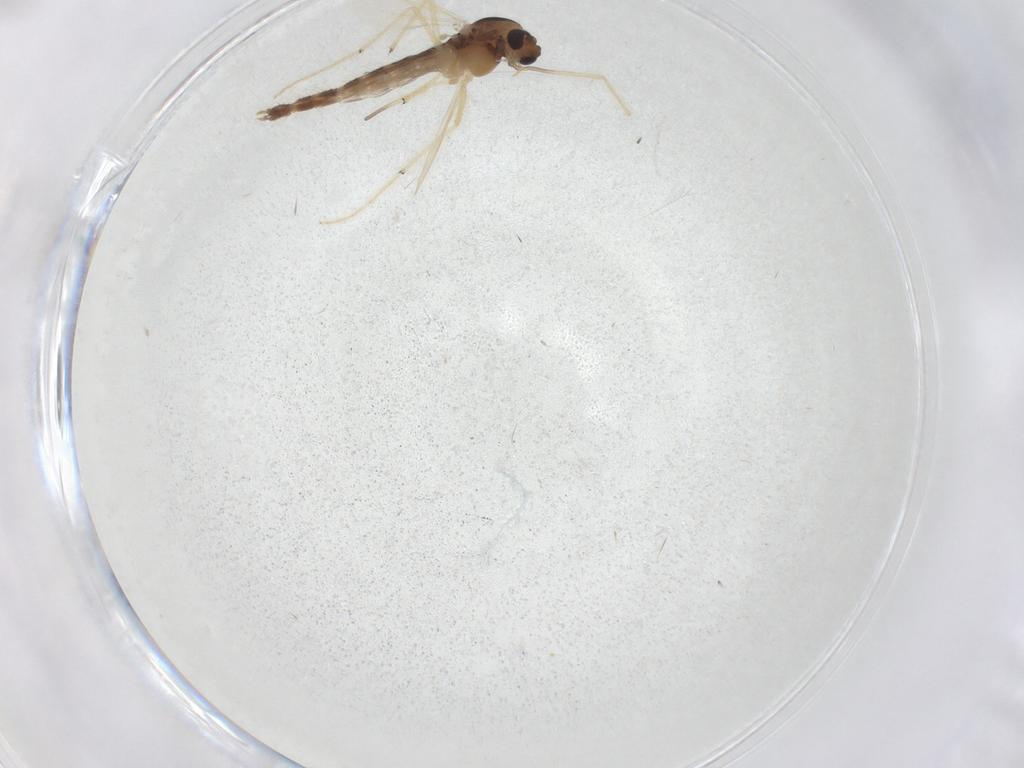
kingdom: Animalia
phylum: Arthropoda
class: Insecta
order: Diptera
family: Chironomidae
